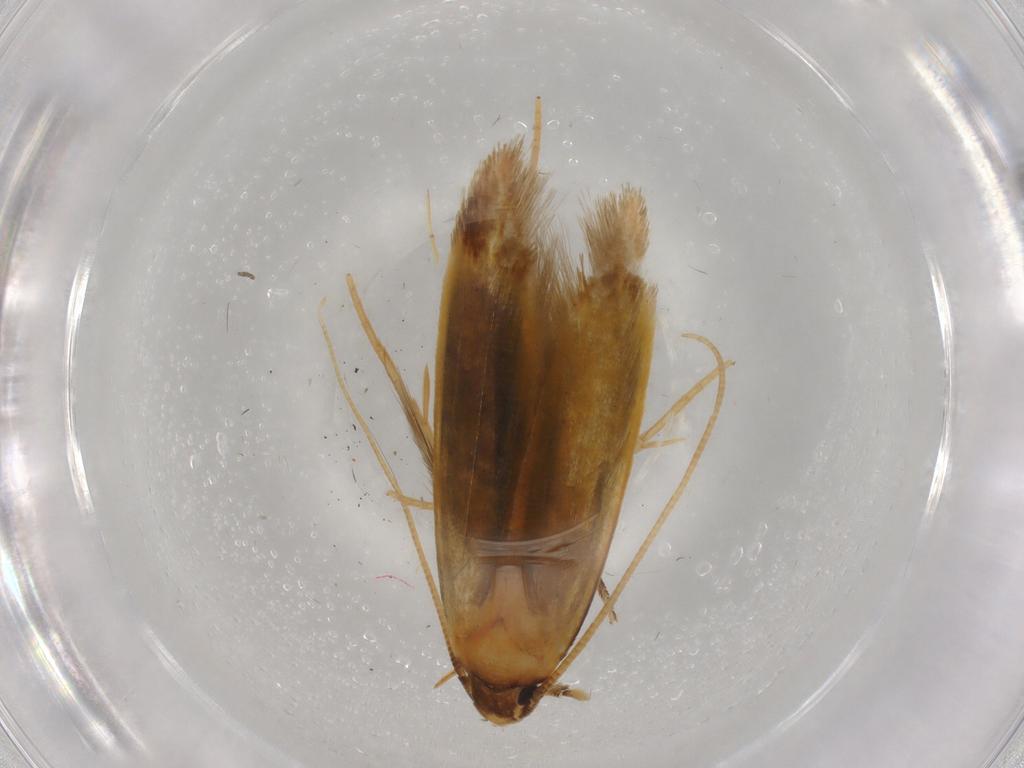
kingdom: Animalia
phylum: Arthropoda
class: Insecta
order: Lepidoptera
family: Tineidae
